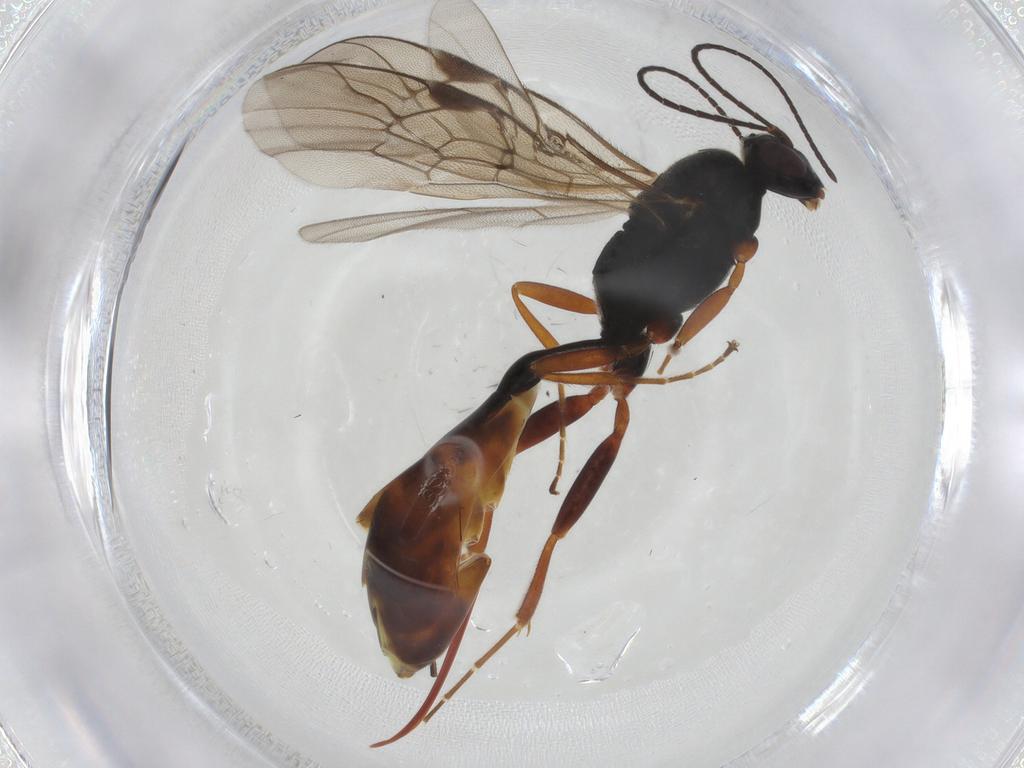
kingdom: Animalia
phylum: Arthropoda
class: Insecta
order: Hymenoptera
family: Ichneumonidae
